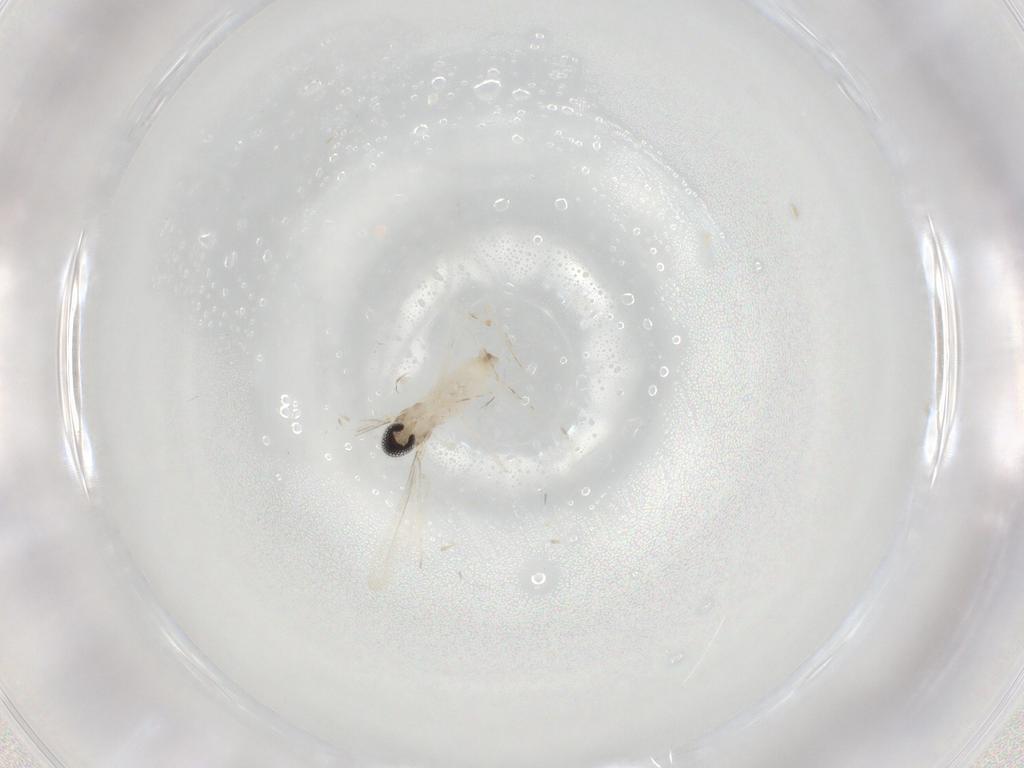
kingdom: Animalia
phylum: Arthropoda
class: Insecta
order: Diptera
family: Cecidomyiidae
